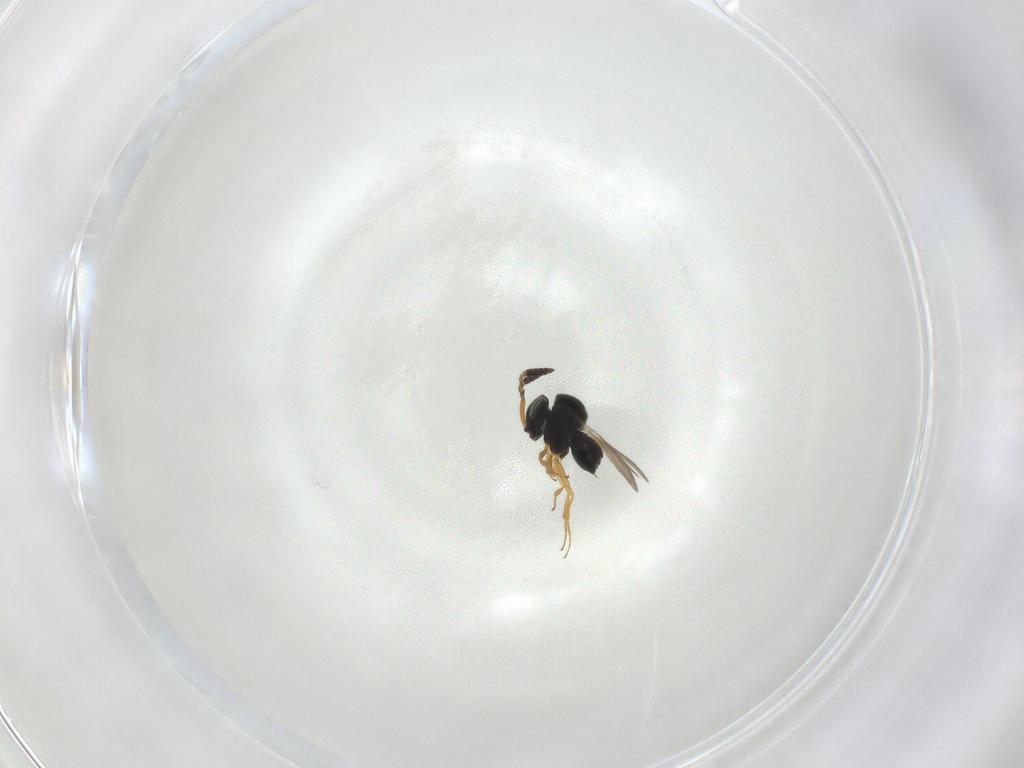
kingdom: Animalia
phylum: Arthropoda
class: Insecta
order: Hymenoptera
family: Scelionidae
